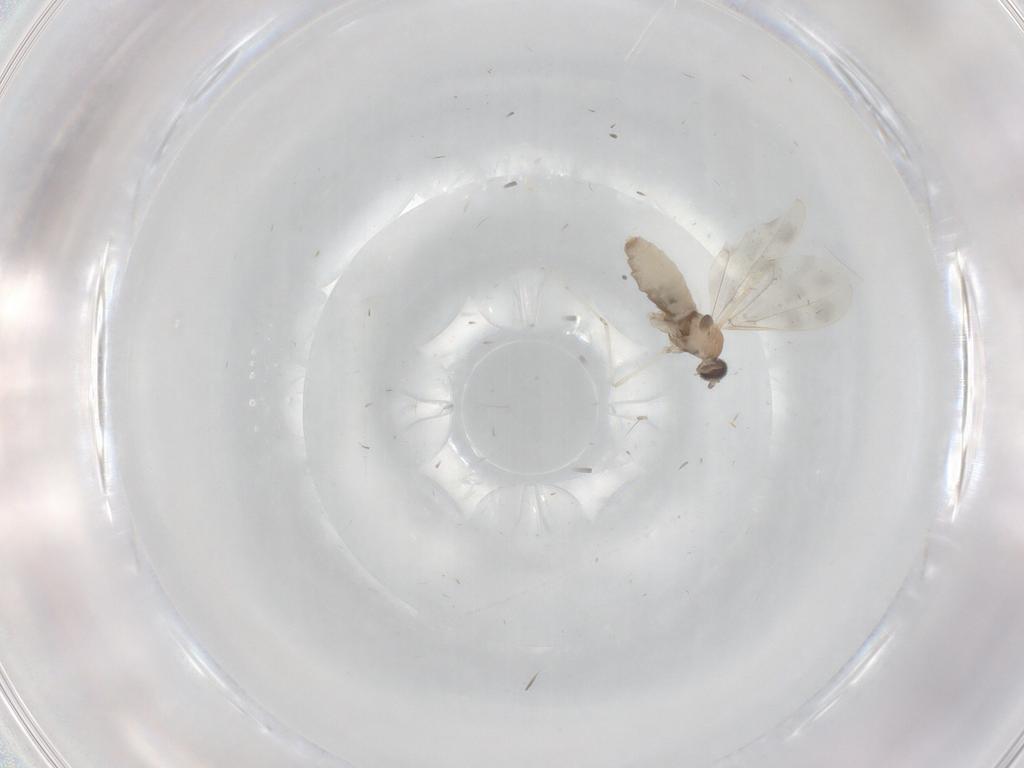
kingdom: Animalia
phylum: Arthropoda
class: Insecta
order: Diptera
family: Cecidomyiidae
